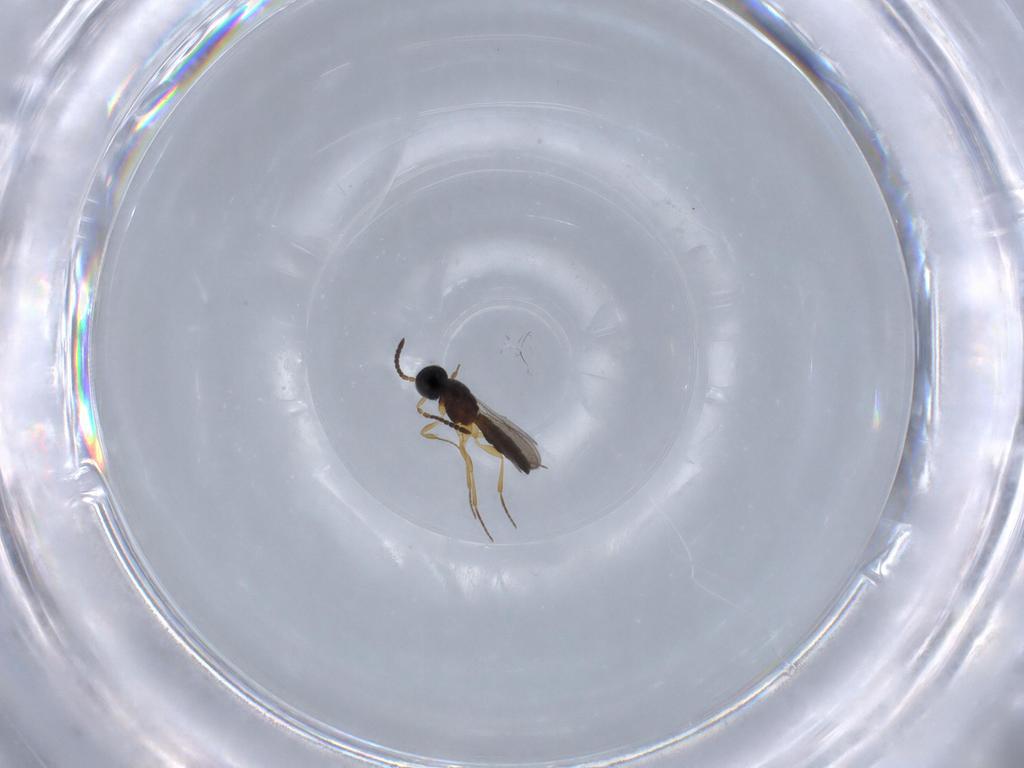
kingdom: Animalia
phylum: Arthropoda
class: Insecta
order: Hymenoptera
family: Scelionidae
